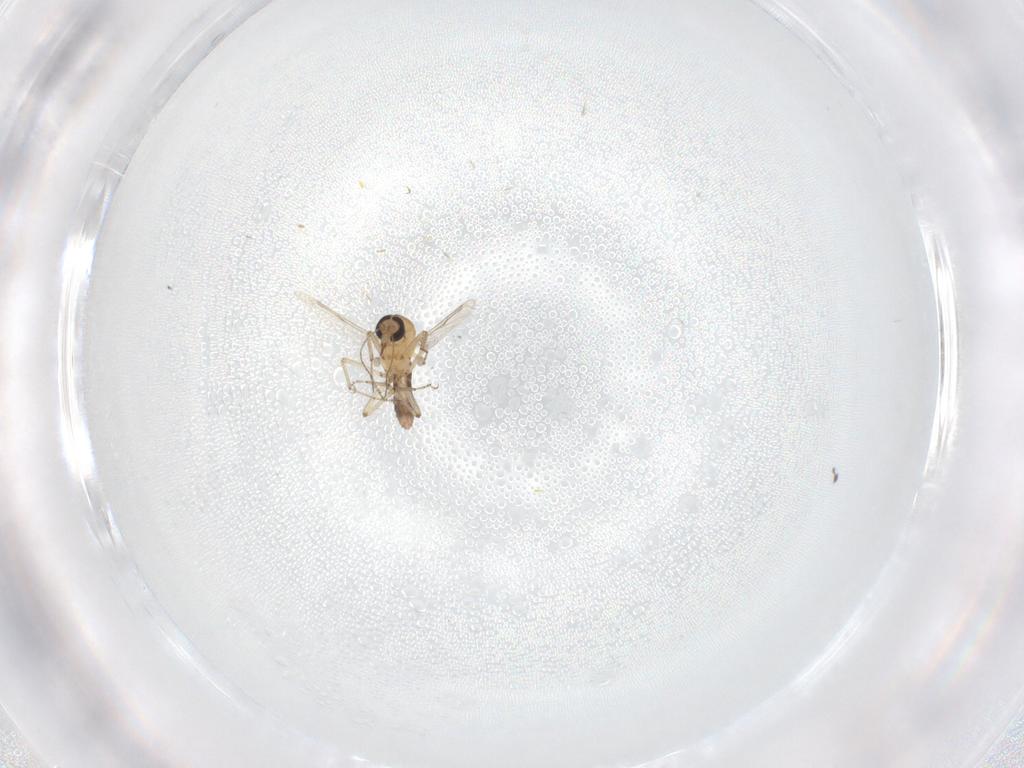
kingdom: Animalia
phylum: Arthropoda
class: Insecta
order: Diptera
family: Ceratopogonidae
